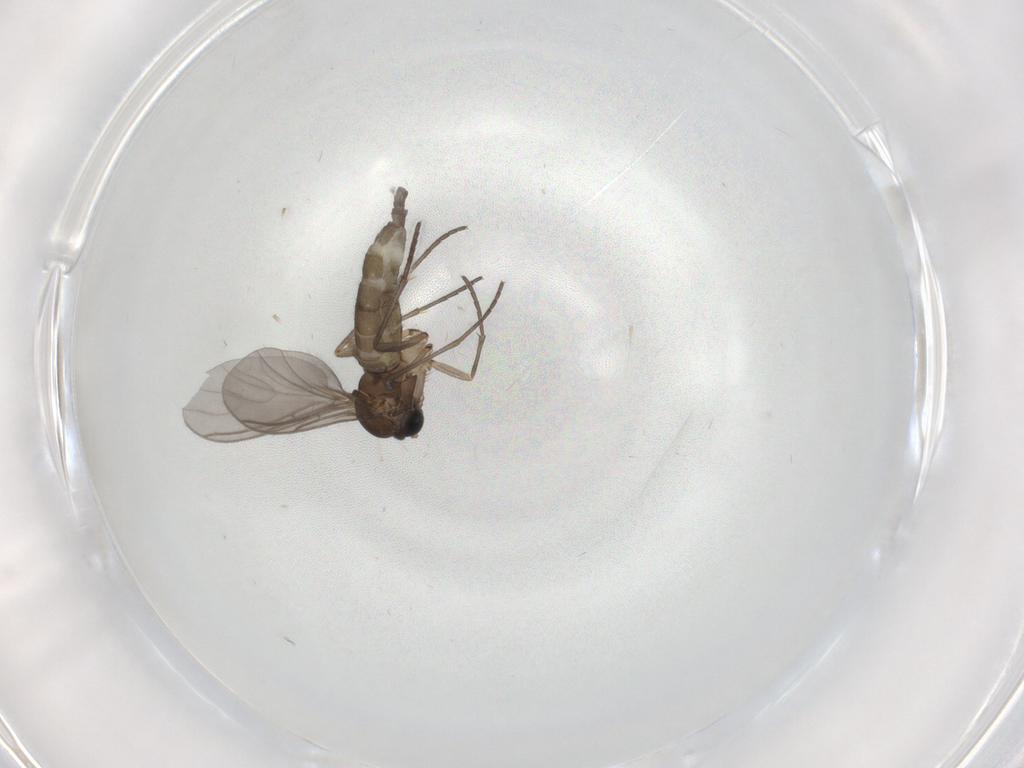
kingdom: Animalia
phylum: Arthropoda
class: Insecta
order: Diptera
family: Sciaridae
